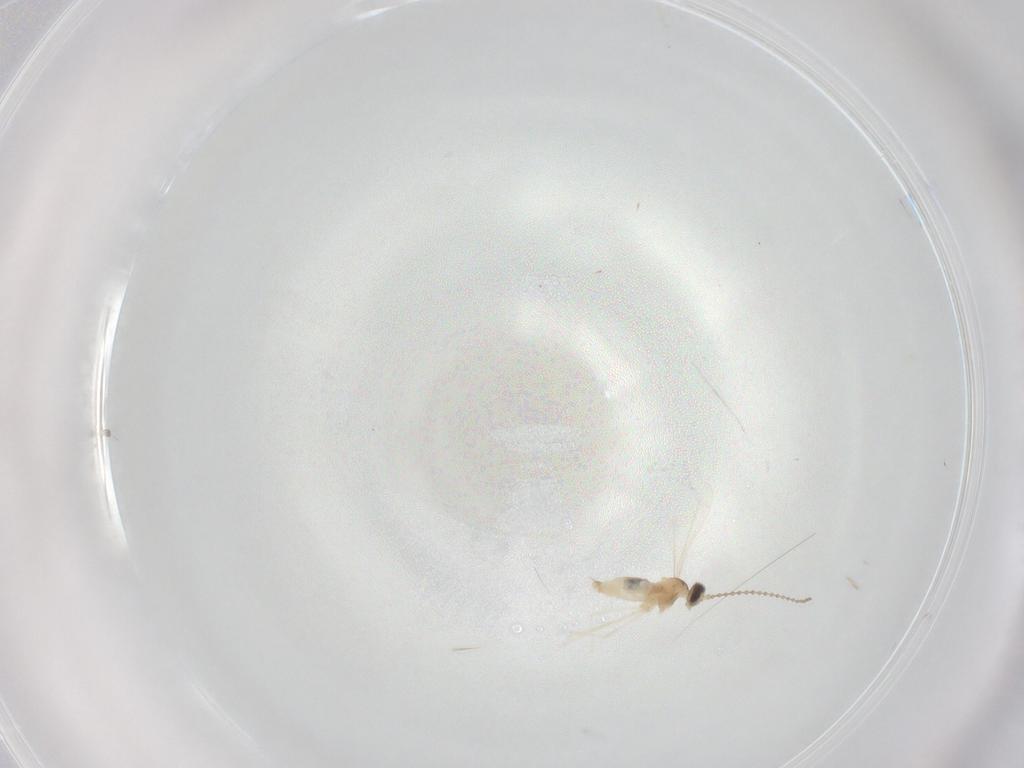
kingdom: Animalia
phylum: Arthropoda
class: Insecta
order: Diptera
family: Cecidomyiidae
